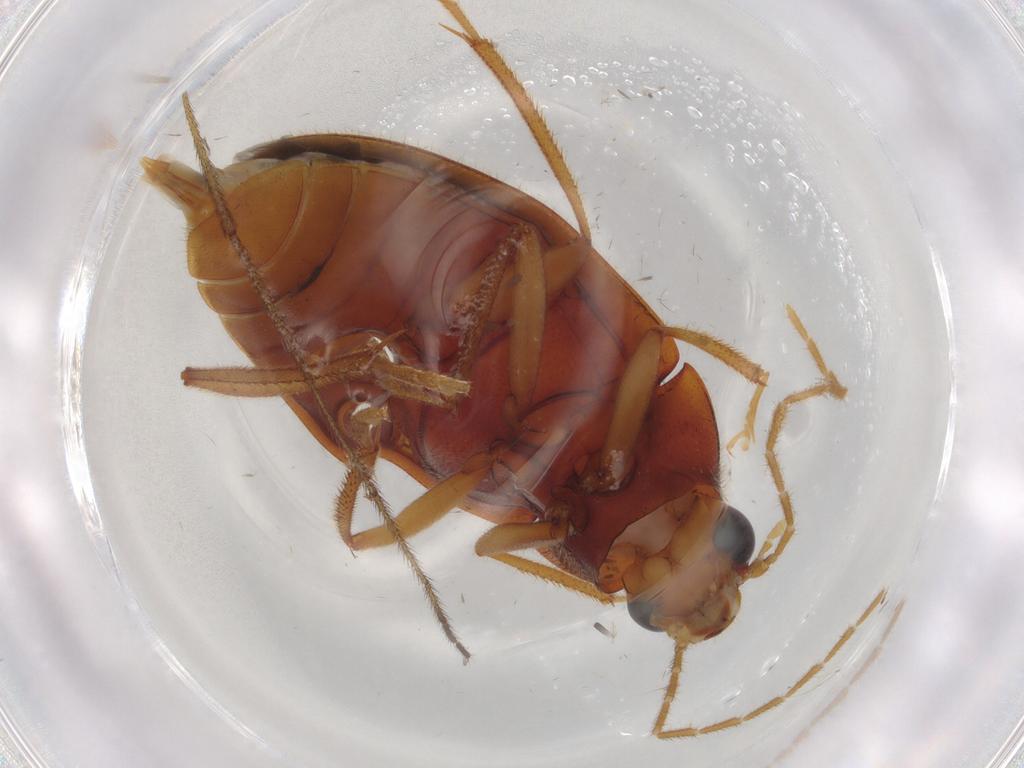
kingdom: Animalia
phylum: Arthropoda
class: Insecta
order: Coleoptera
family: Ptilodactylidae
